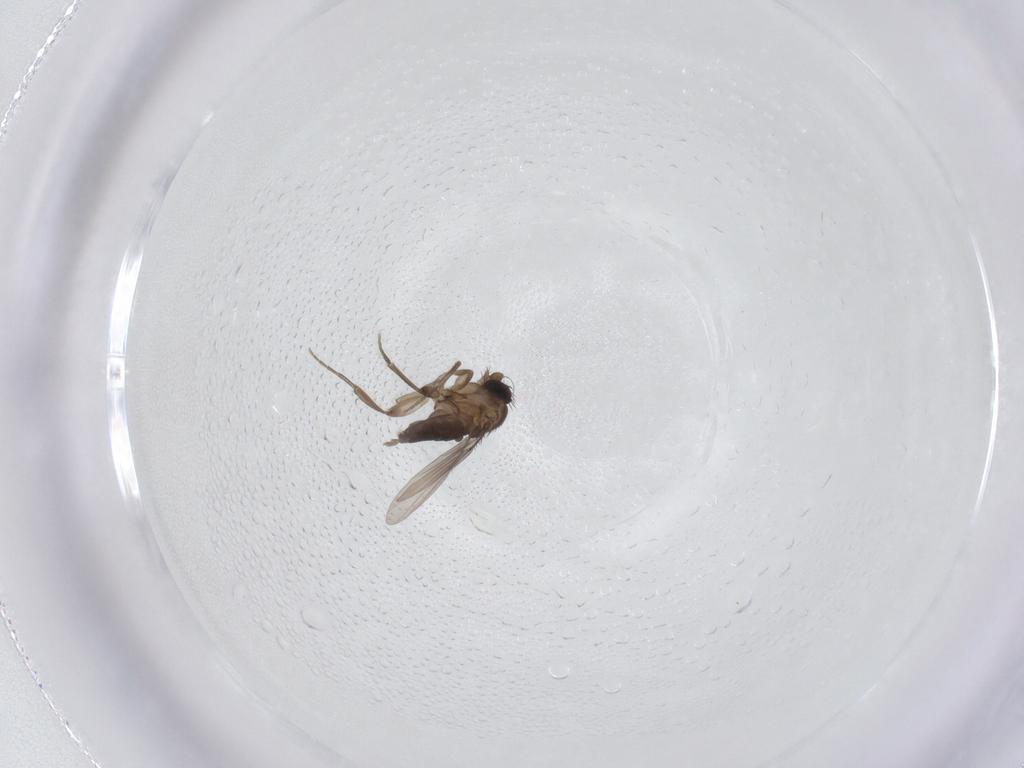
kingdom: Animalia
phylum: Arthropoda
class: Insecta
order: Diptera
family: Phoridae
